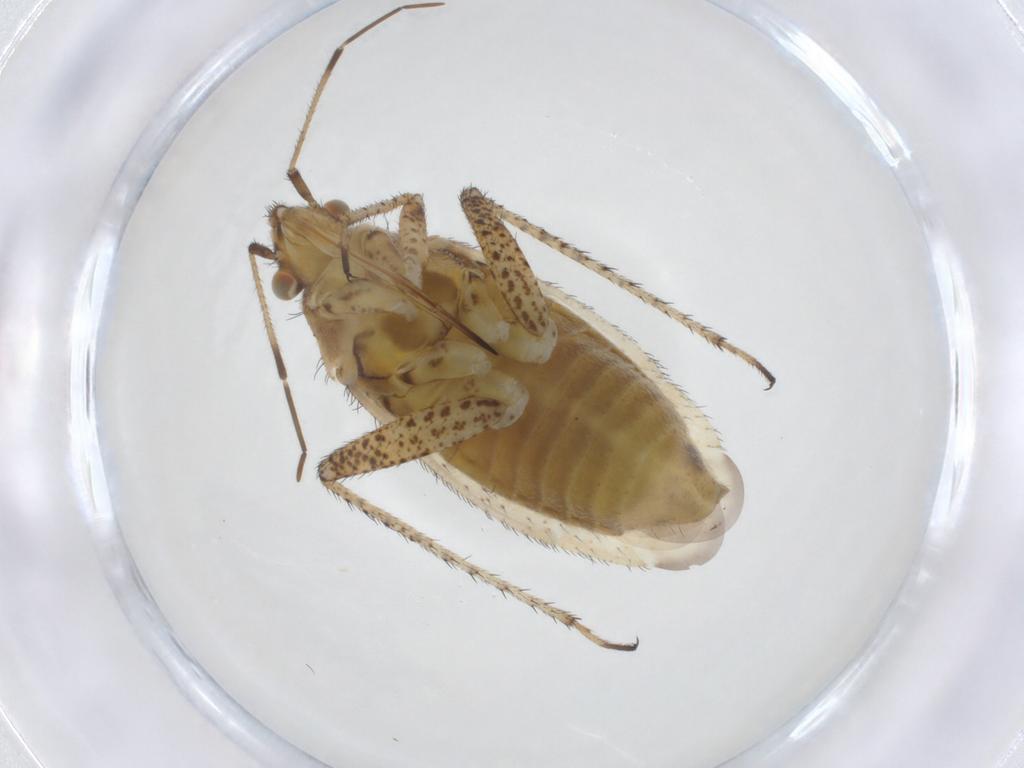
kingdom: Animalia
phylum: Arthropoda
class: Insecta
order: Hemiptera
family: Miridae
